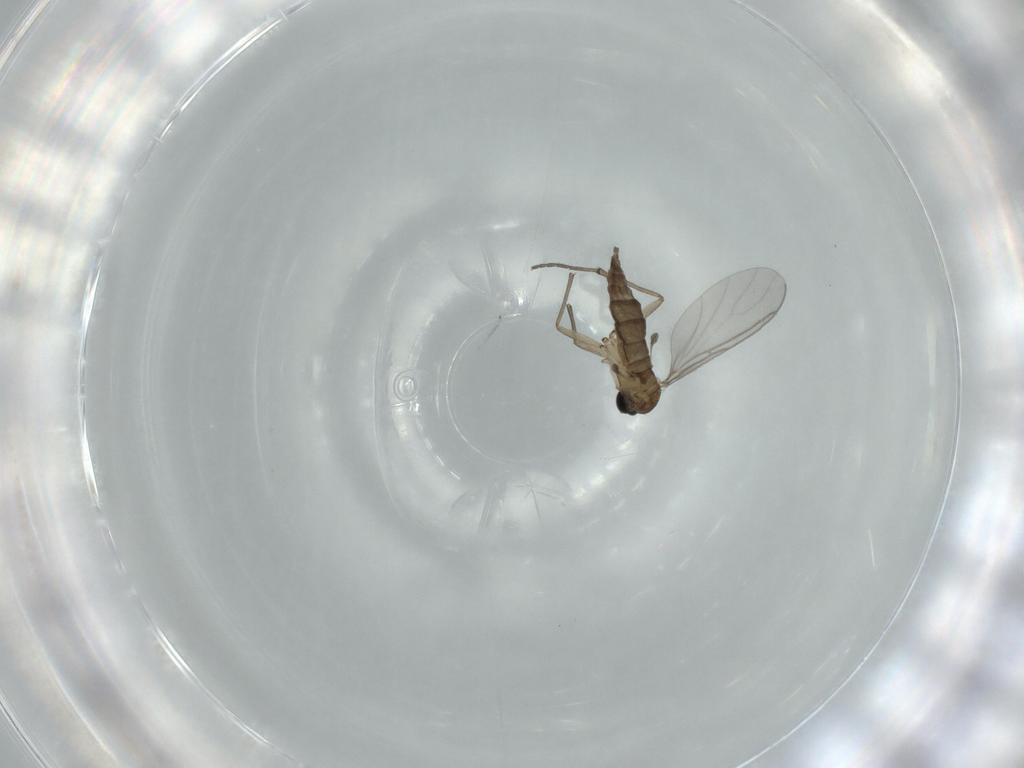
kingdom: Animalia
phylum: Arthropoda
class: Insecta
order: Diptera
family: Sciaridae
